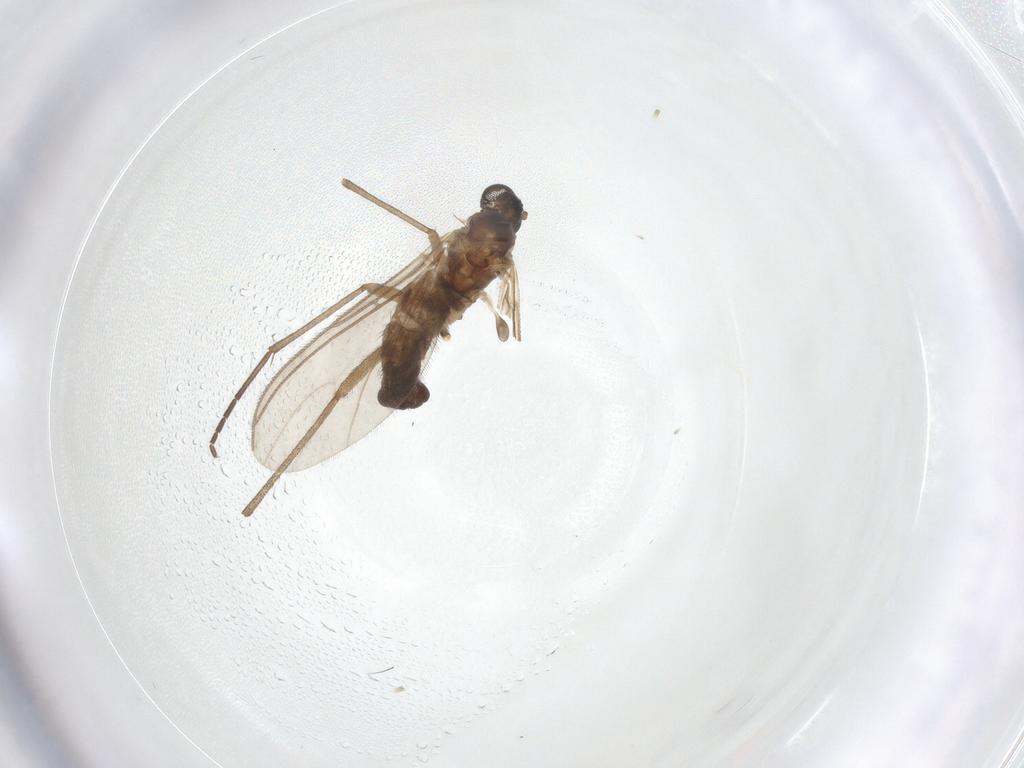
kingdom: Animalia
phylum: Arthropoda
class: Insecta
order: Diptera
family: Sciaridae
